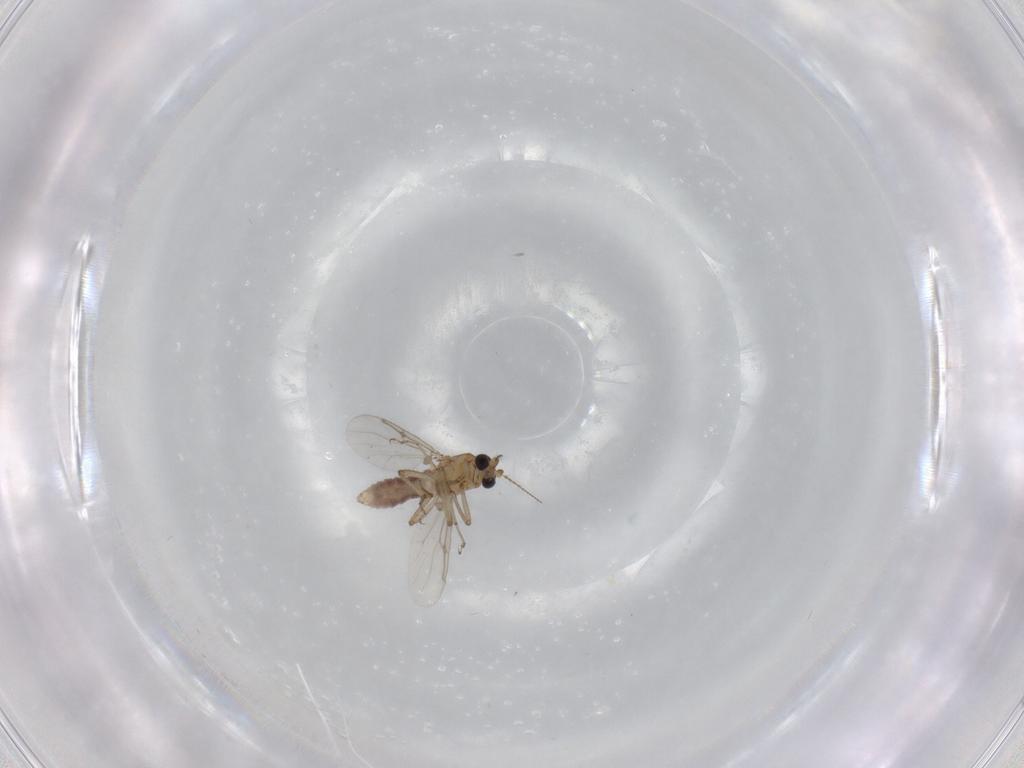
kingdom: Animalia
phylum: Arthropoda
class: Insecta
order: Diptera
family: Ceratopogonidae
